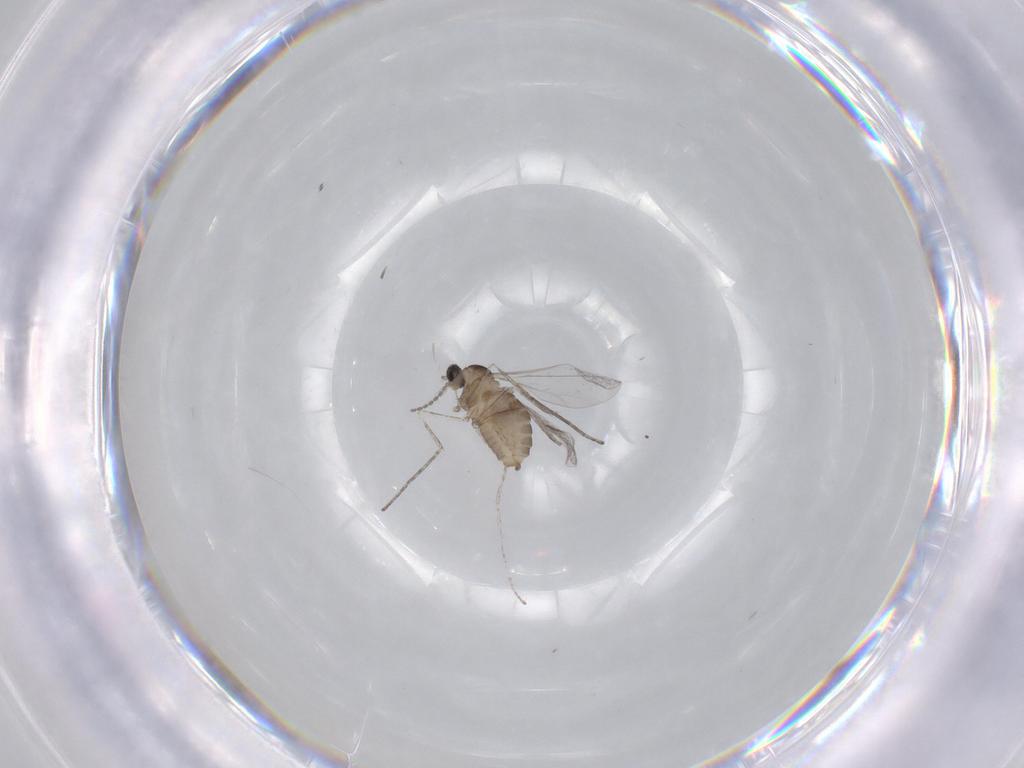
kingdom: Animalia
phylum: Arthropoda
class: Insecta
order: Diptera
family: Cecidomyiidae
